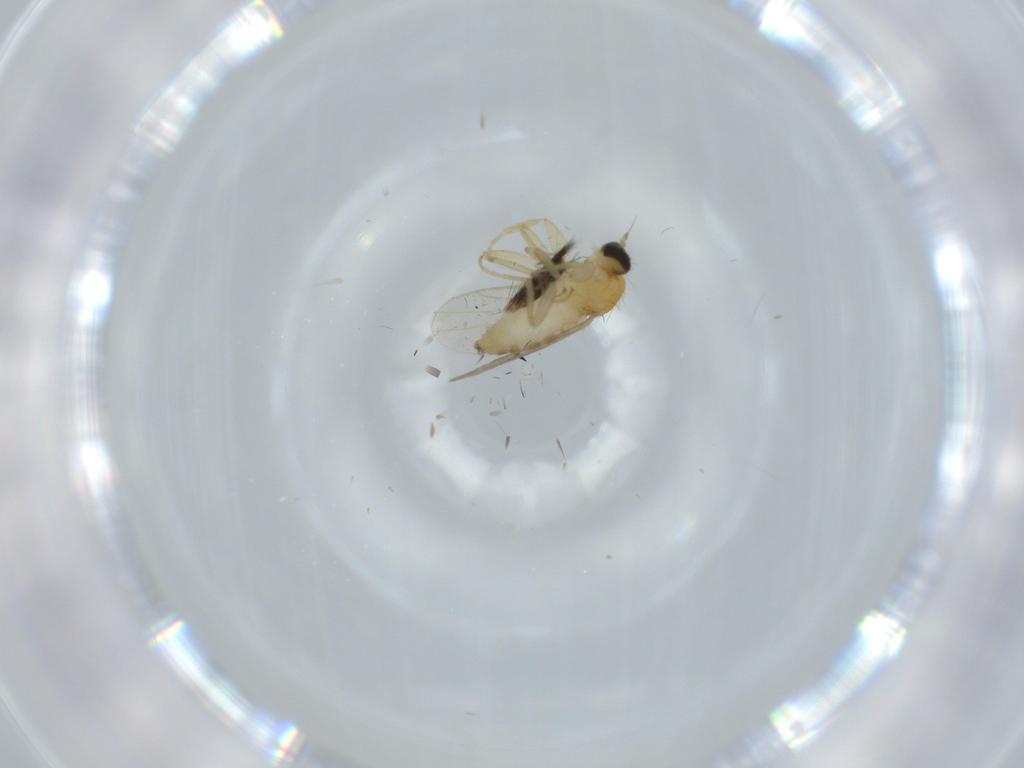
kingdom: Animalia
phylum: Arthropoda
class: Insecta
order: Diptera
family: Hybotidae
